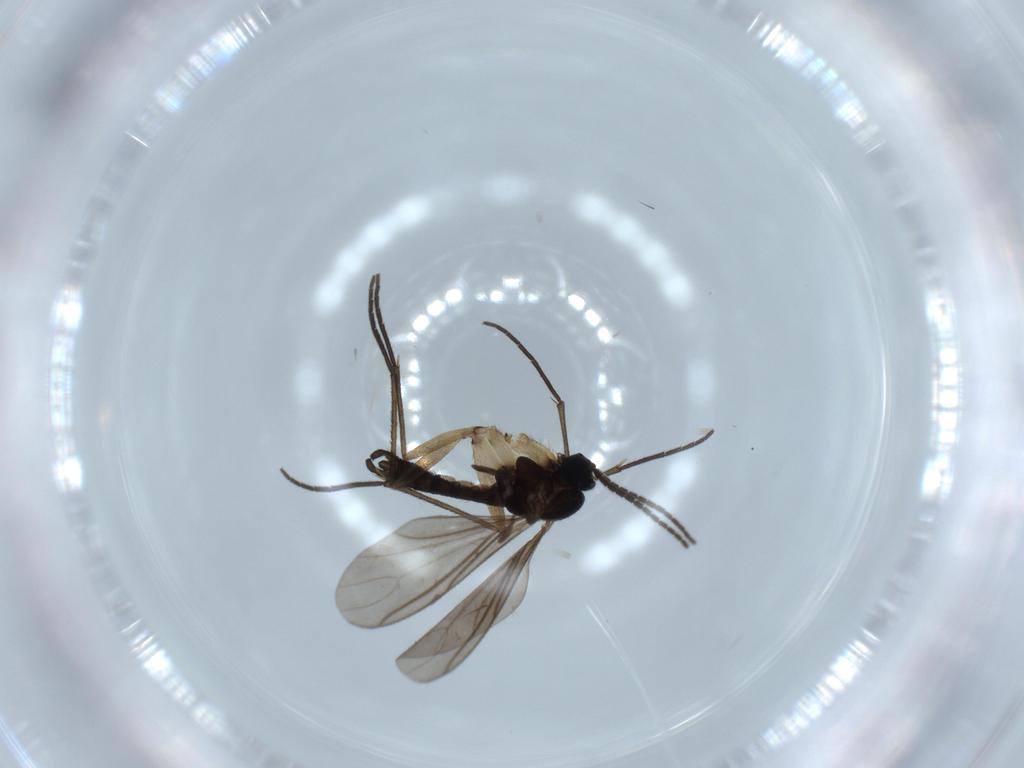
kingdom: Animalia
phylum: Arthropoda
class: Insecta
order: Diptera
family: Sciaridae
